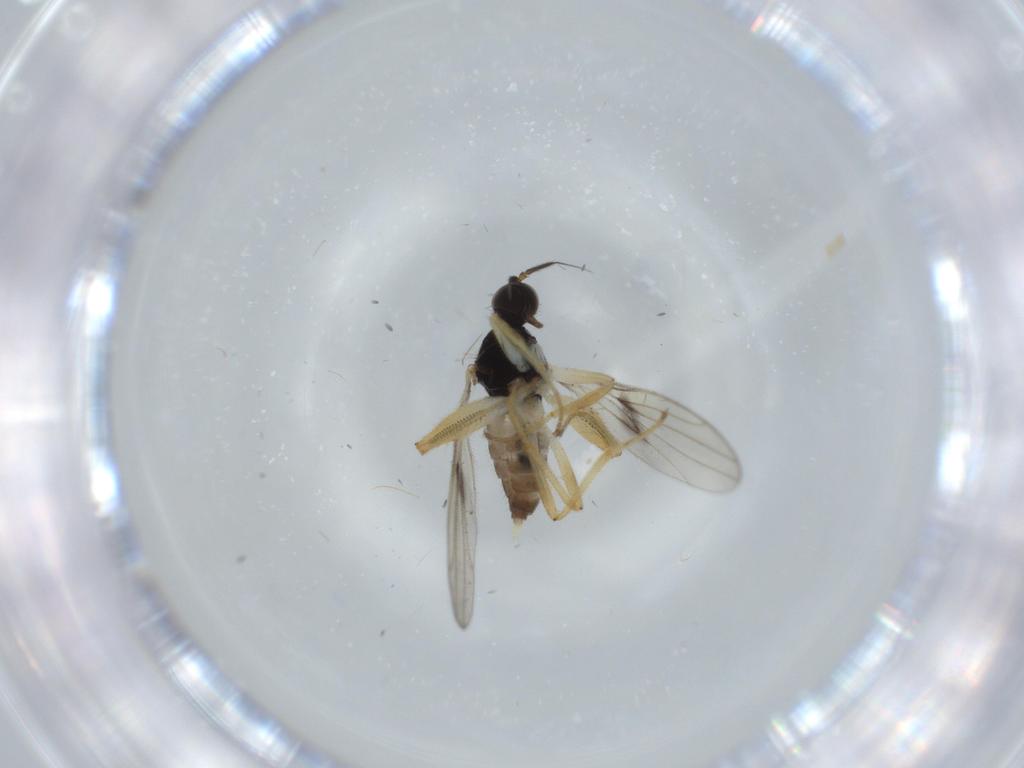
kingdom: Animalia
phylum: Arthropoda
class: Insecta
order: Diptera
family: Hybotidae
